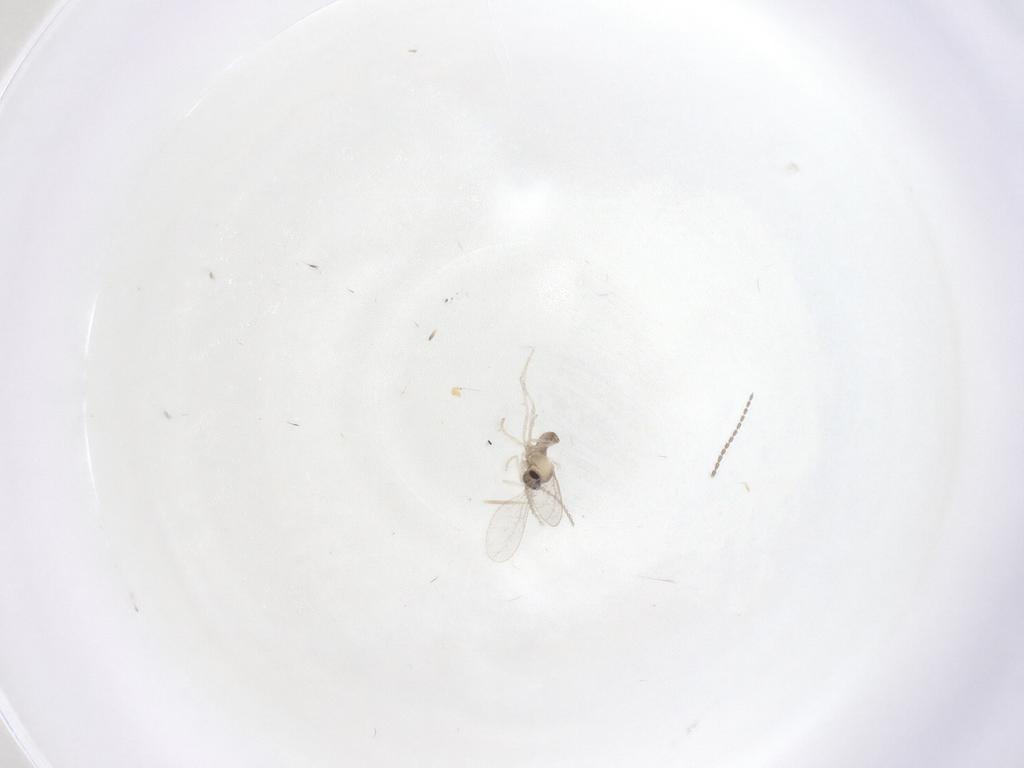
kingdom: Animalia
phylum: Arthropoda
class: Insecta
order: Diptera
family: Cecidomyiidae
